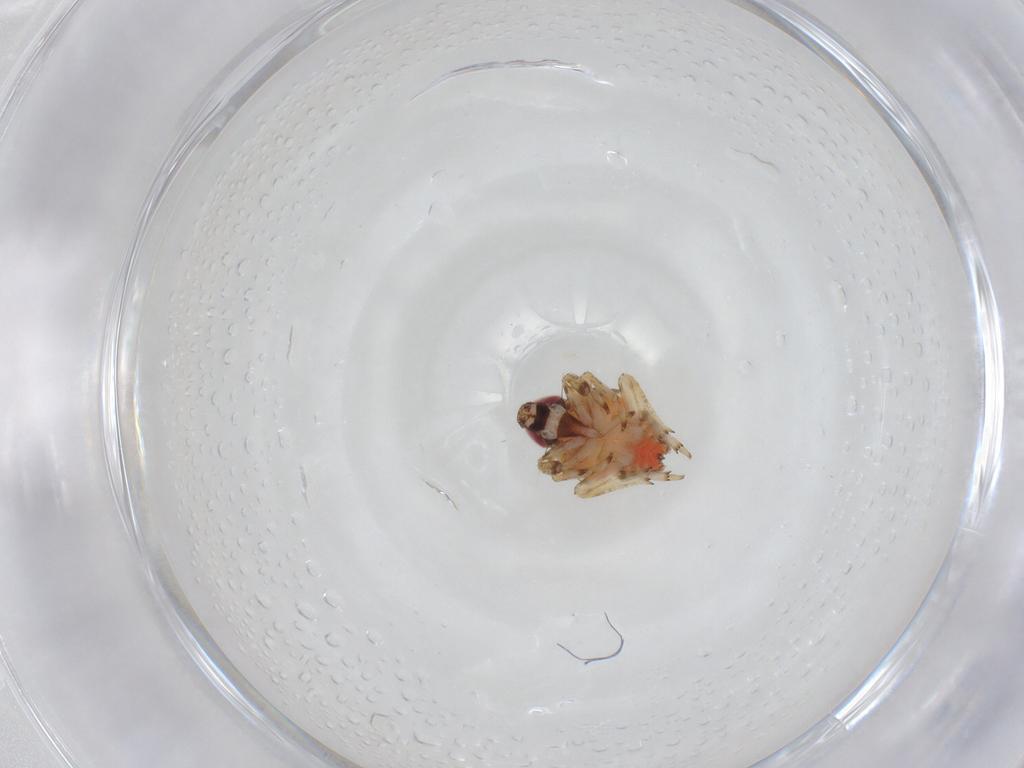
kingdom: Animalia
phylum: Arthropoda
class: Insecta
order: Hemiptera
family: Issidae
